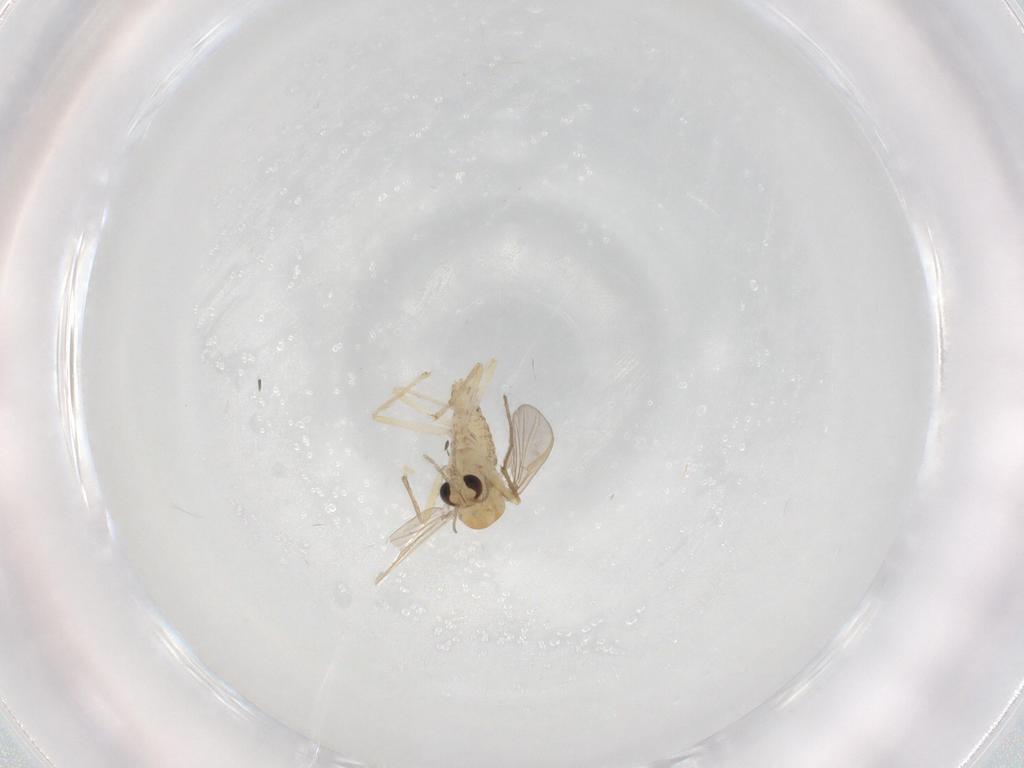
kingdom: Animalia
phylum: Arthropoda
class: Insecta
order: Diptera
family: Chironomidae
